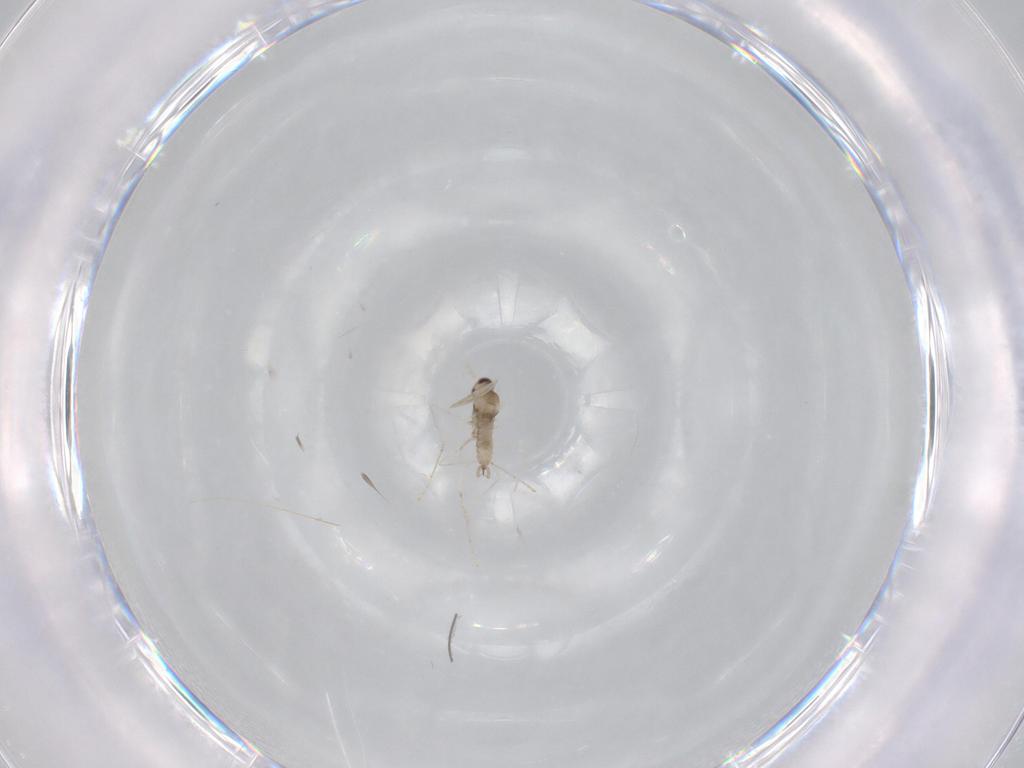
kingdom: Animalia
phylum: Arthropoda
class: Insecta
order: Diptera
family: Cecidomyiidae
